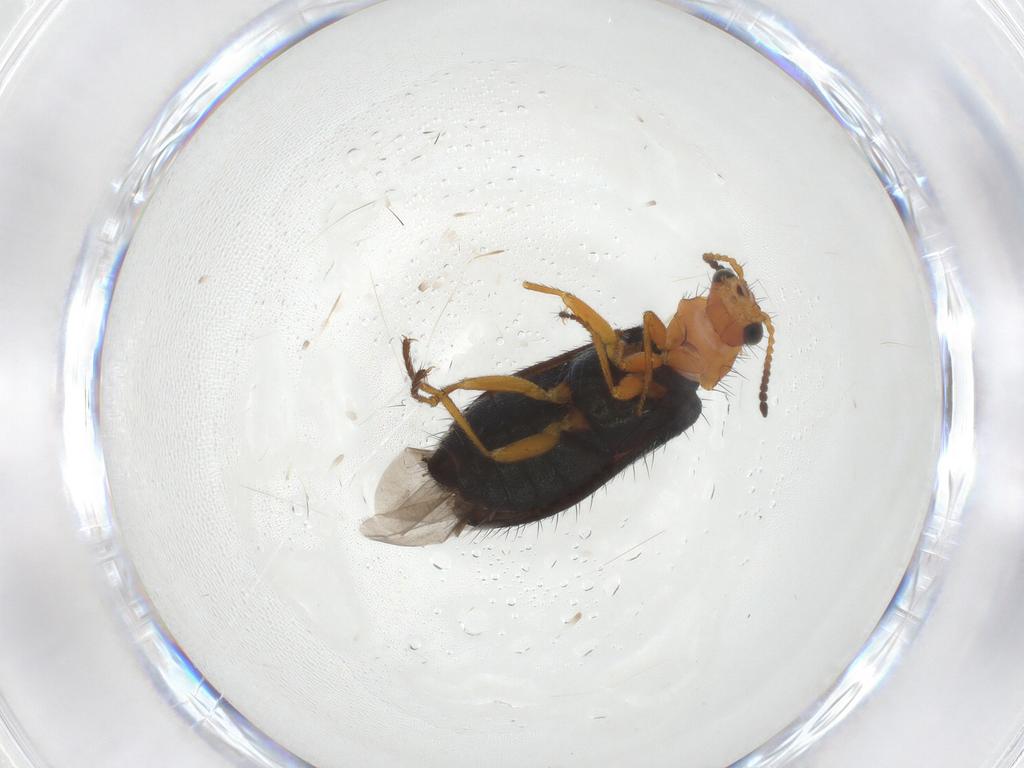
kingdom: Animalia
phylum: Arthropoda
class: Insecta
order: Coleoptera
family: Melyridae
